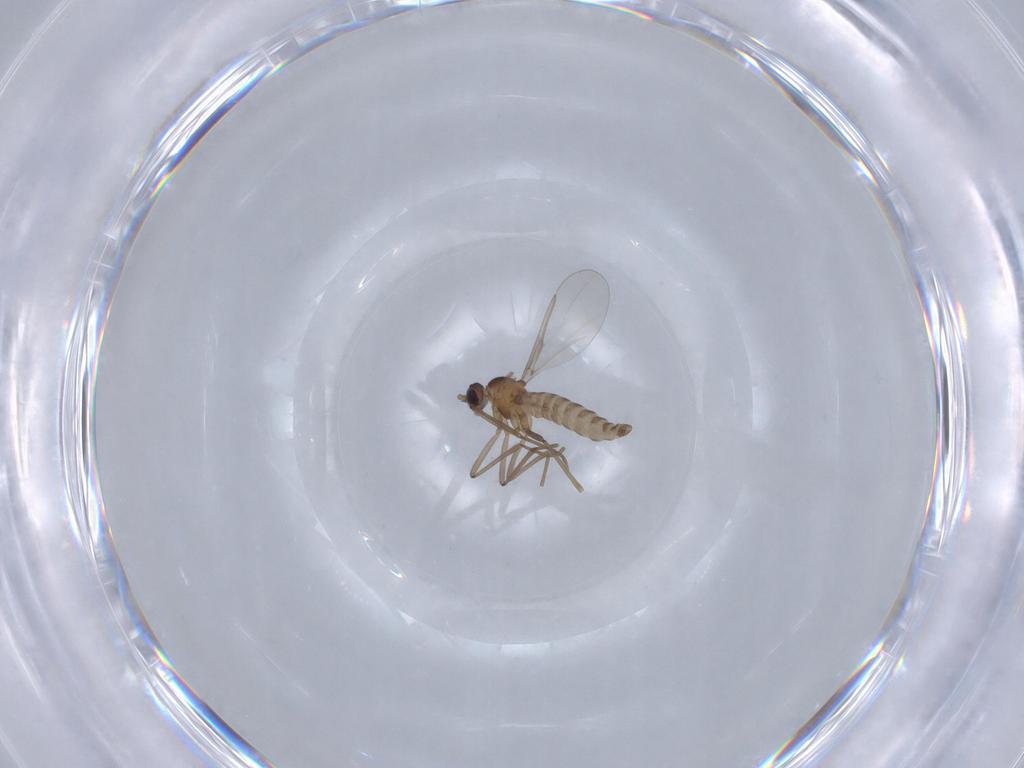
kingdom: Animalia
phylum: Arthropoda
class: Insecta
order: Diptera
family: Cecidomyiidae
